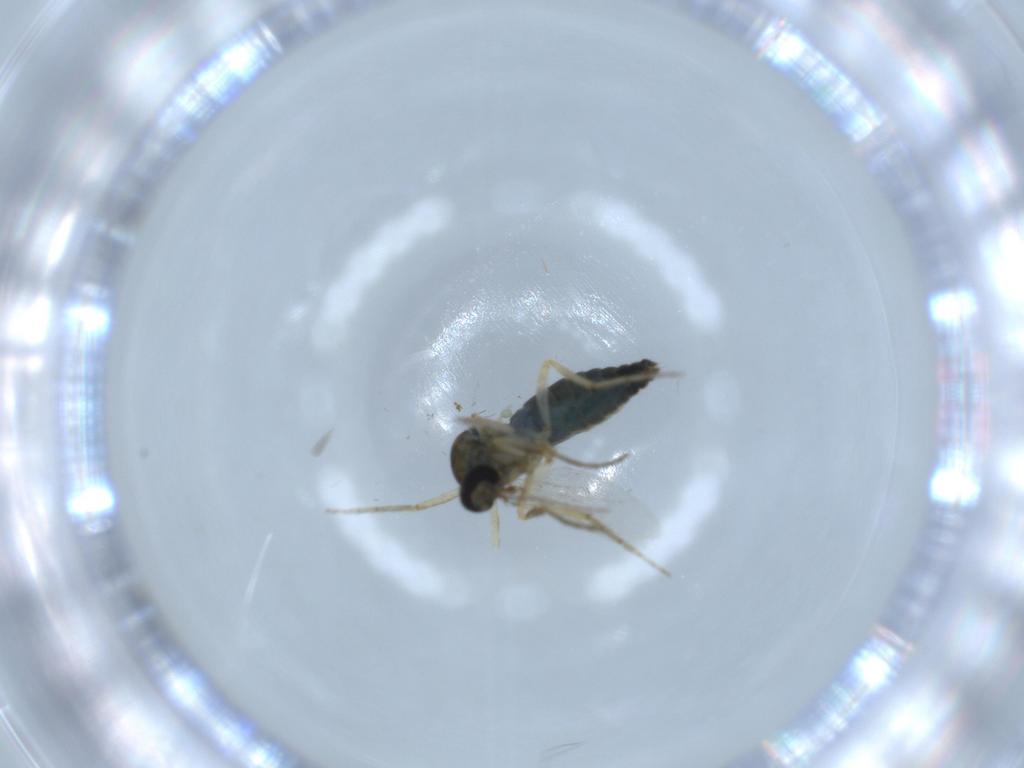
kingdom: Animalia
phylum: Arthropoda
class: Insecta
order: Diptera
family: Ceratopogonidae
